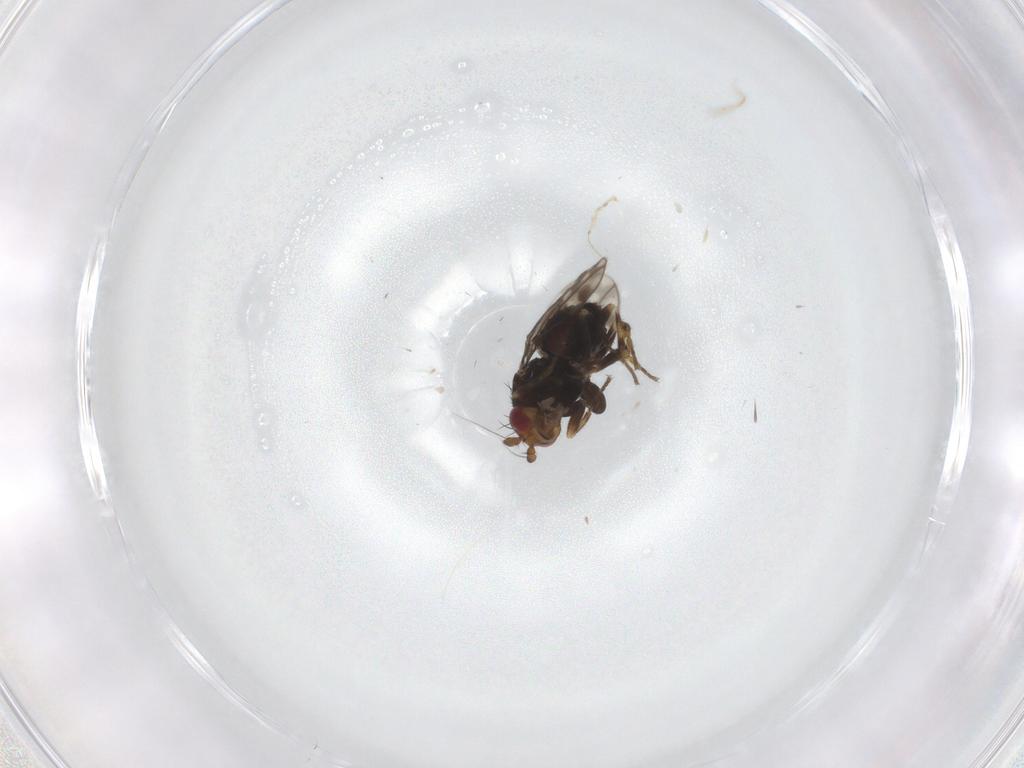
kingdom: Animalia
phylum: Arthropoda
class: Insecta
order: Diptera
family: Sphaeroceridae
